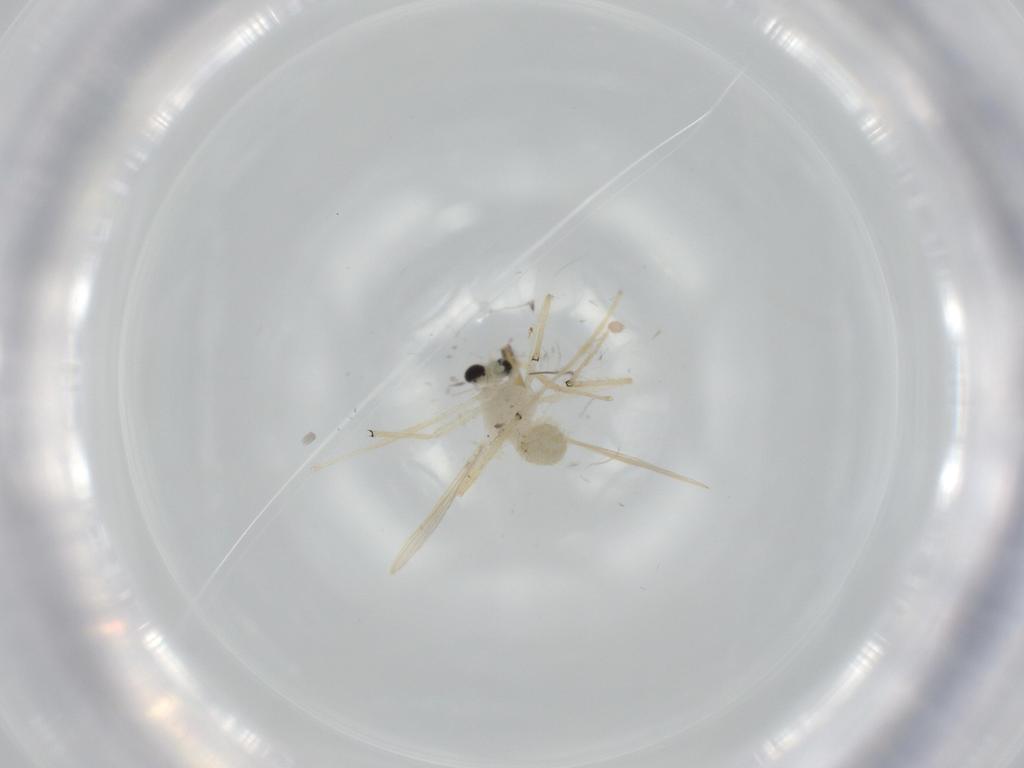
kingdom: Animalia
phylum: Arthropoda
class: Insecta
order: Diptera
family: Chironomidae
